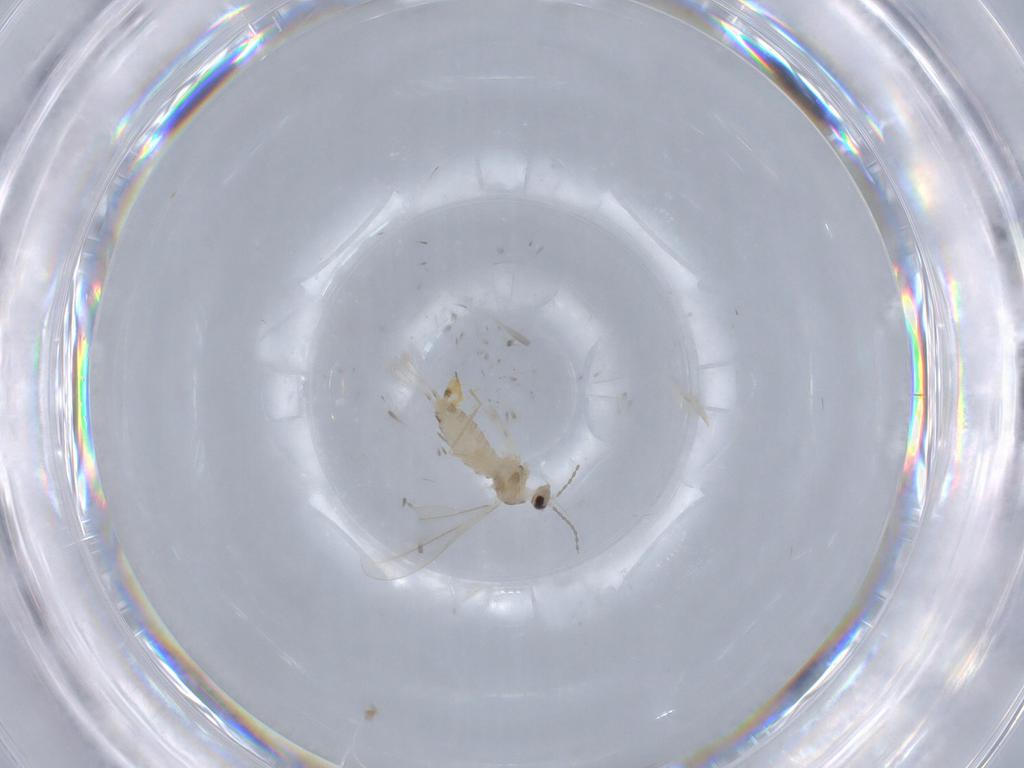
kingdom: Animalia
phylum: Arthropoda
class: Insecta
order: Diptera
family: Cecidomyiidae
